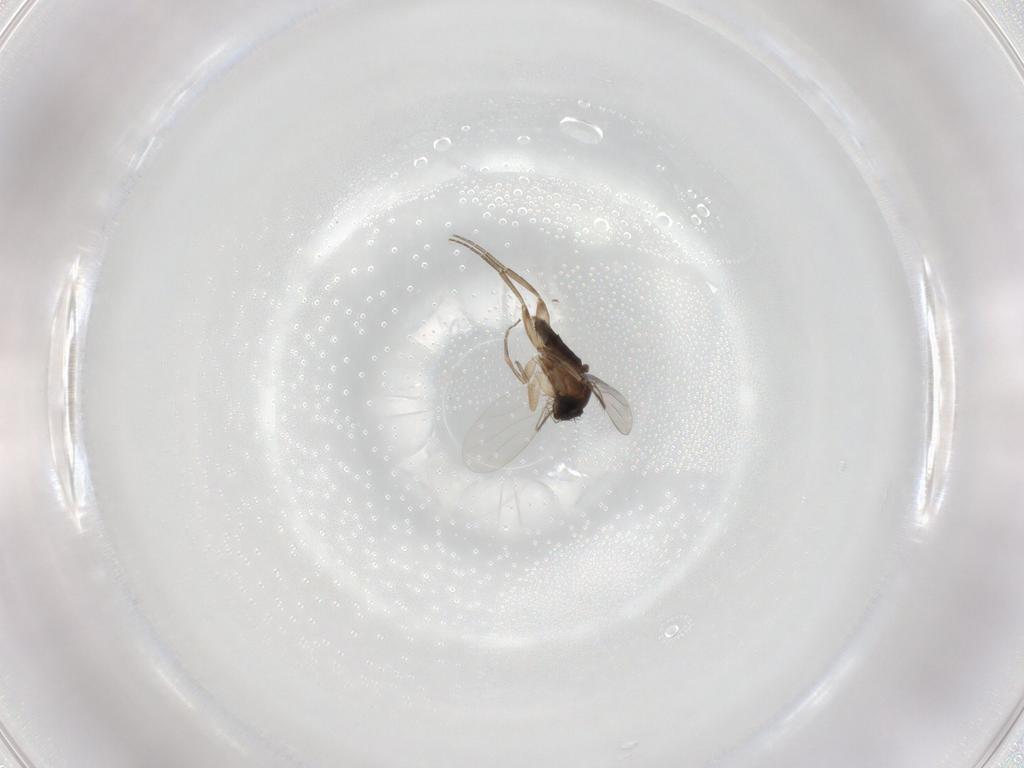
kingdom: Animalia
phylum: Arthropoda
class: Insecta
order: Diptera
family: Phoridae
